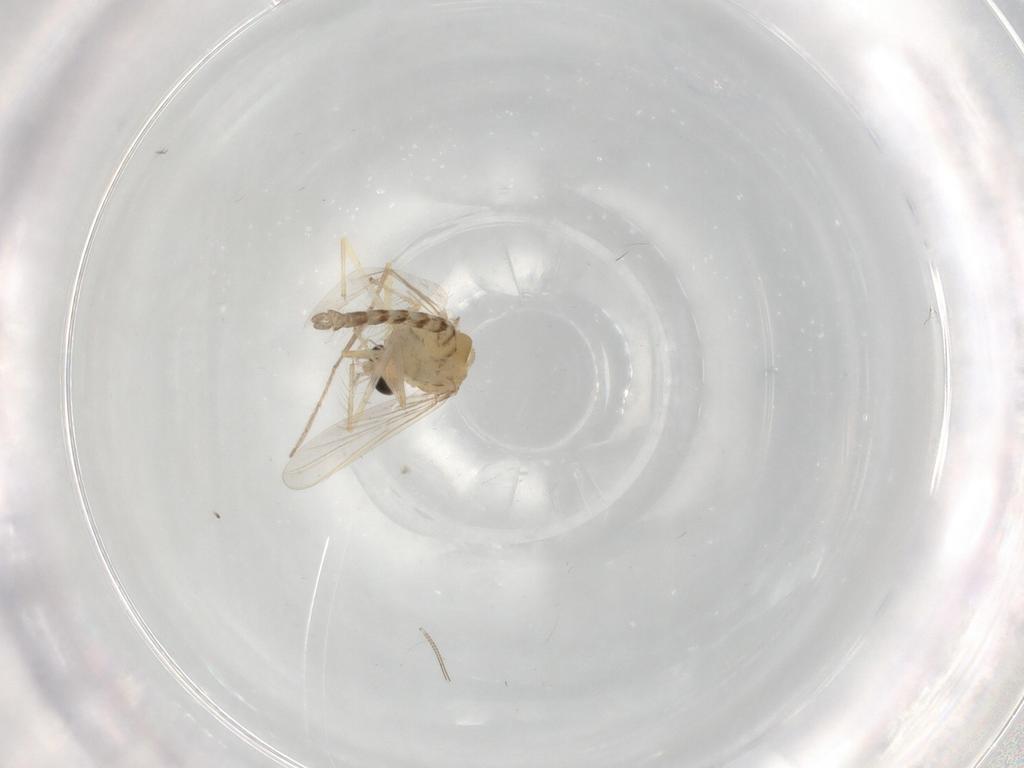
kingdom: Animalia
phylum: Arthropoda
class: Insecta
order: Diptera
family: Chironomidae
